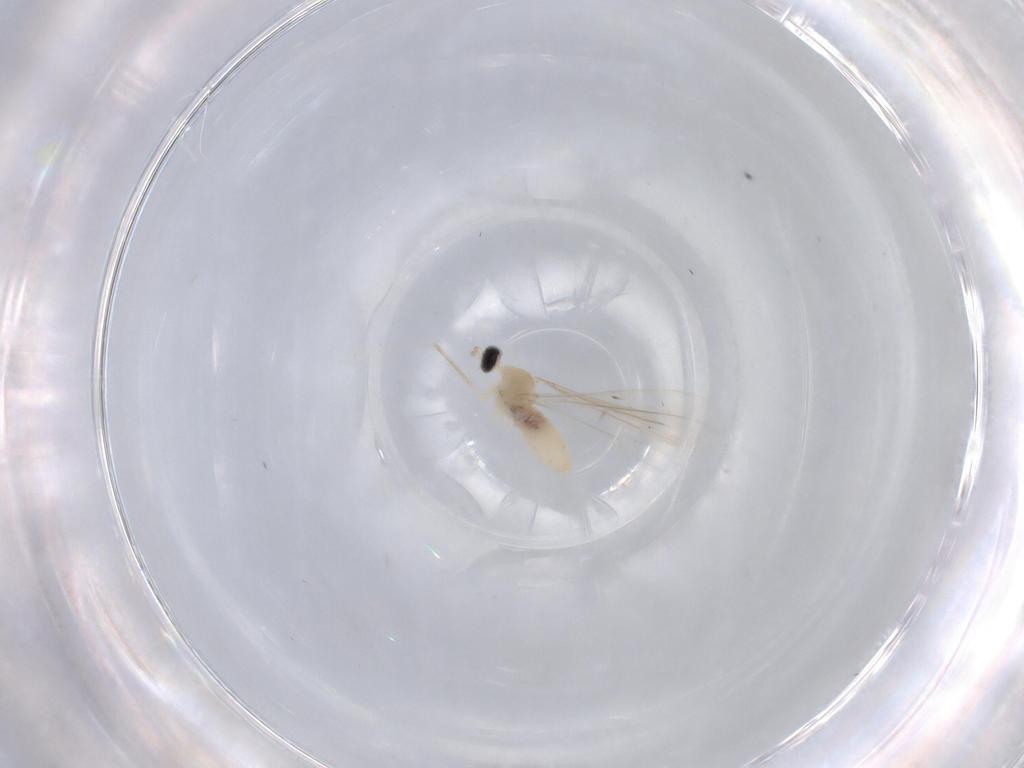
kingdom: Animalia
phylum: Arthropoda
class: Insecta
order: Diptera
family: Cecidomyiidae
